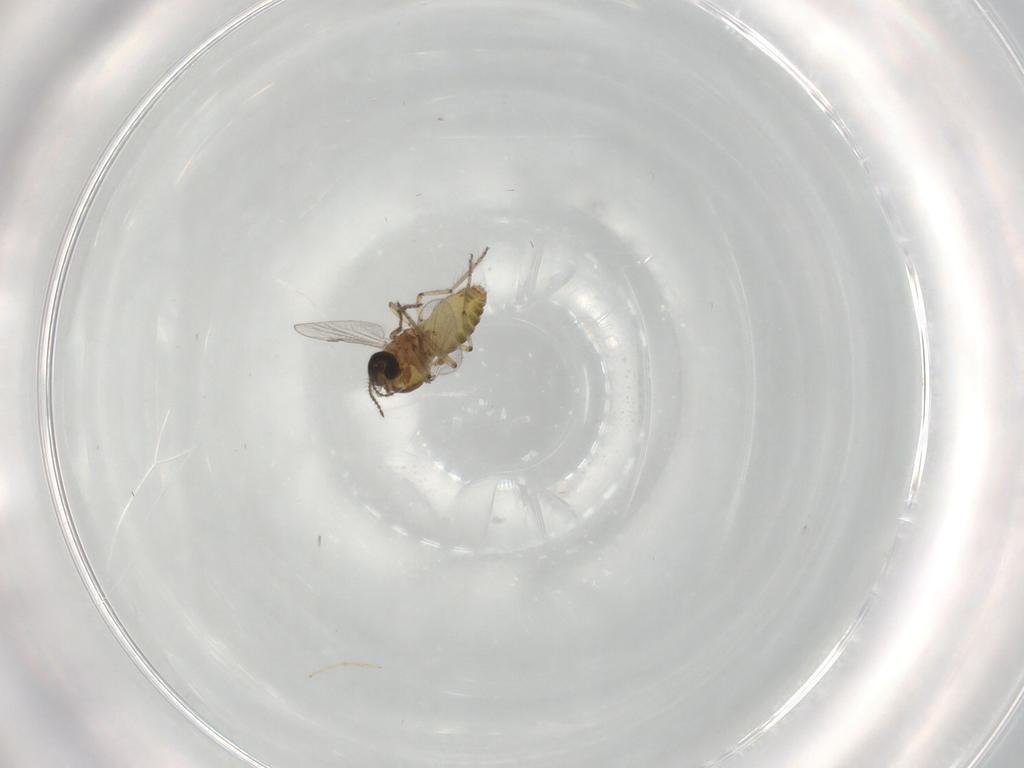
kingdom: Animalia
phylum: Arthropoda
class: Insecta
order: Diptera
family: Ceratopogonidae
